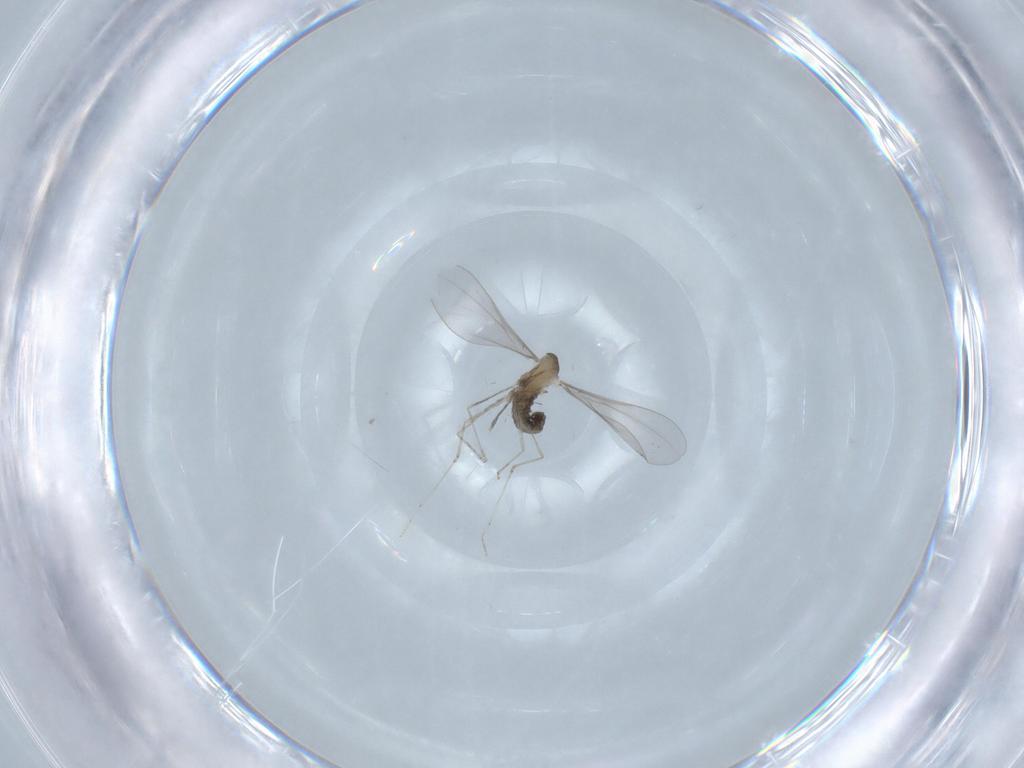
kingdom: Animalia
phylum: Arthropoda
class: Insecta
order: Diptera
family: Cecidomyiidae
